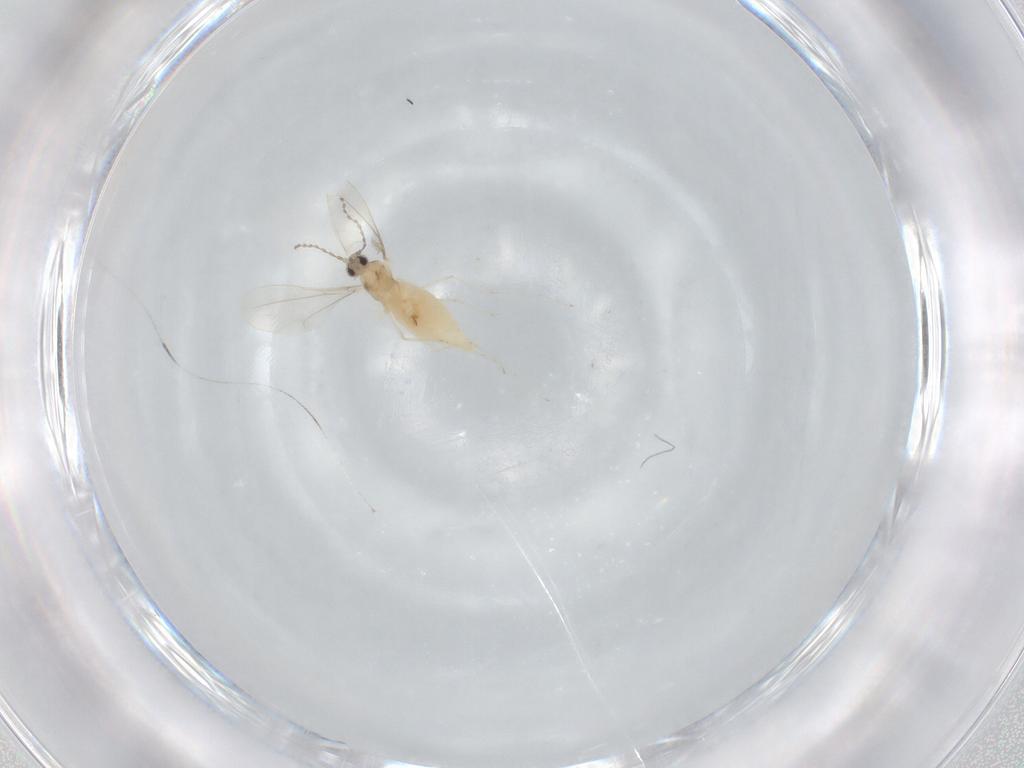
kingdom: Animalia
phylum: Arthropoda
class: Insecta
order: Diptera
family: Cecidomyiidae
